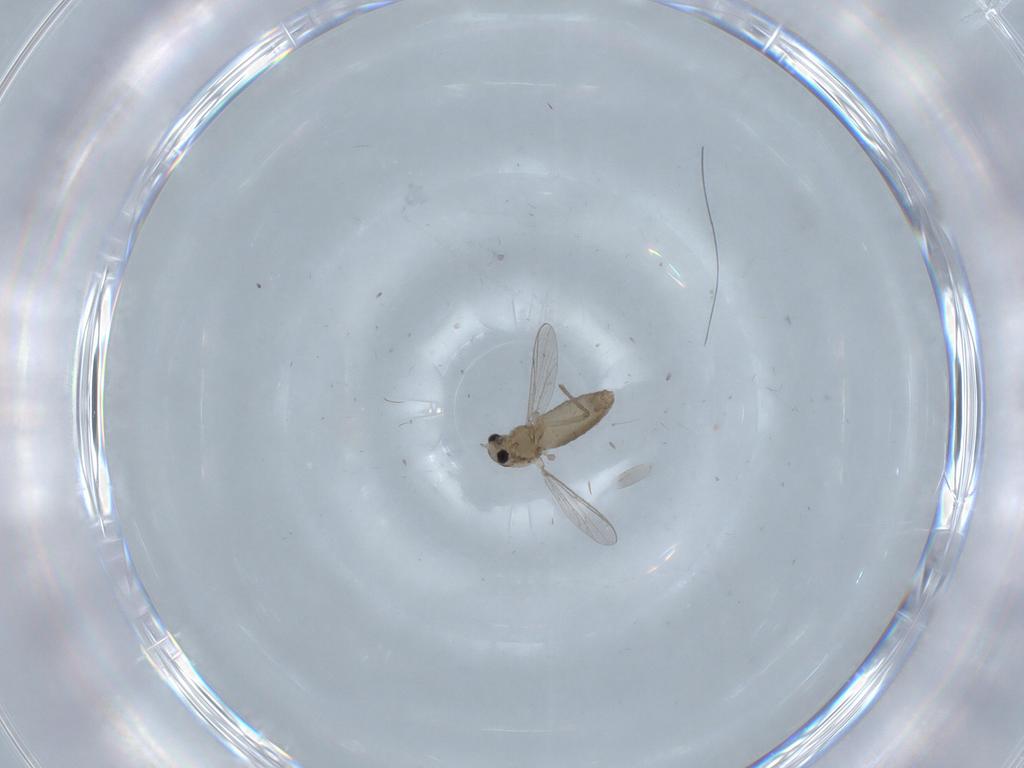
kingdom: Animalia
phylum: Arthropoda
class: Insecta
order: Diptera
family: Chironomidae
